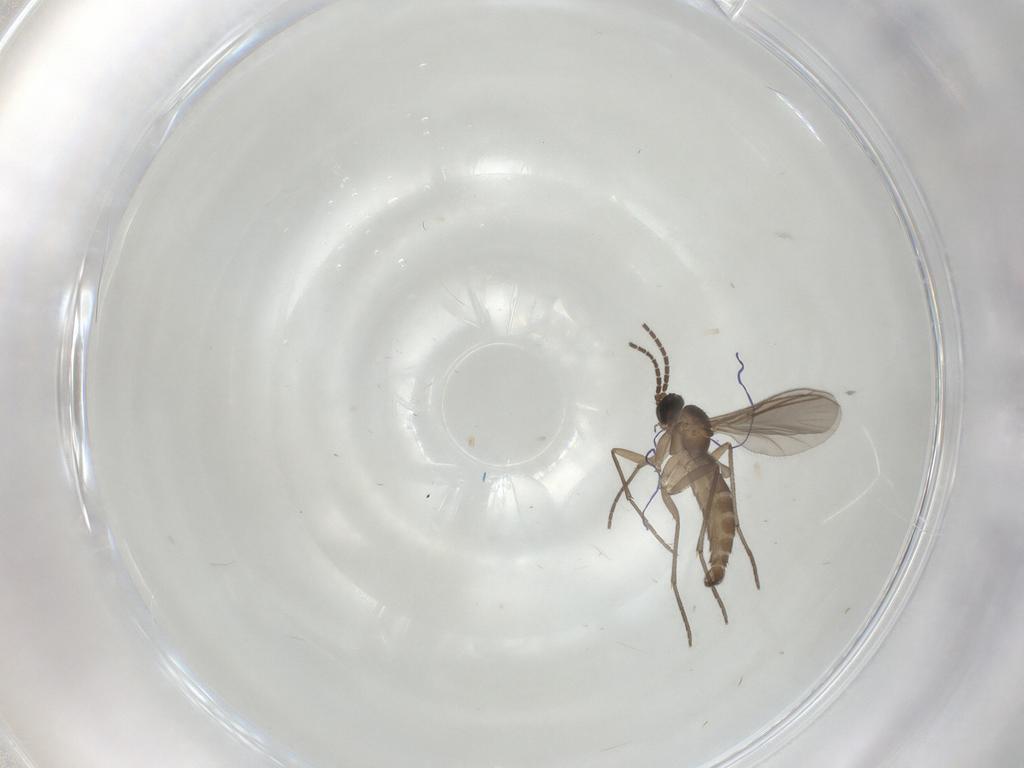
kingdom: Animalia
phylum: Arthropoda
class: Insecta
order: Diptera
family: Sciaridae
